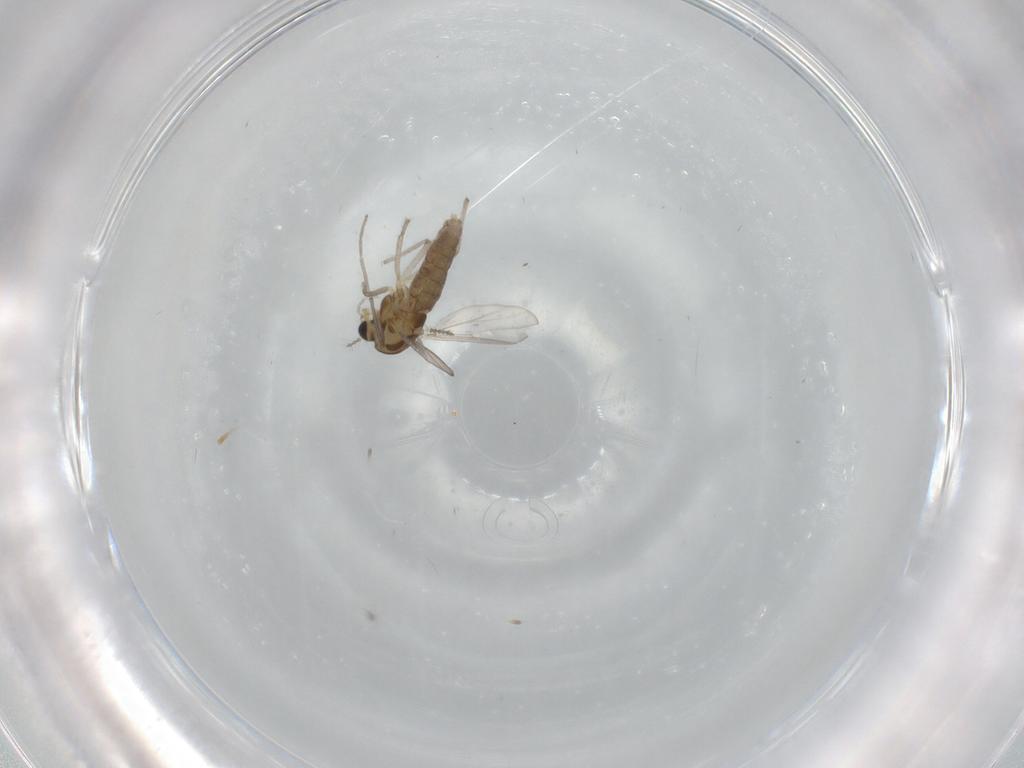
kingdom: Animalia
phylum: Arthropoda
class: Insecta
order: Diptera
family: Chironomidae
